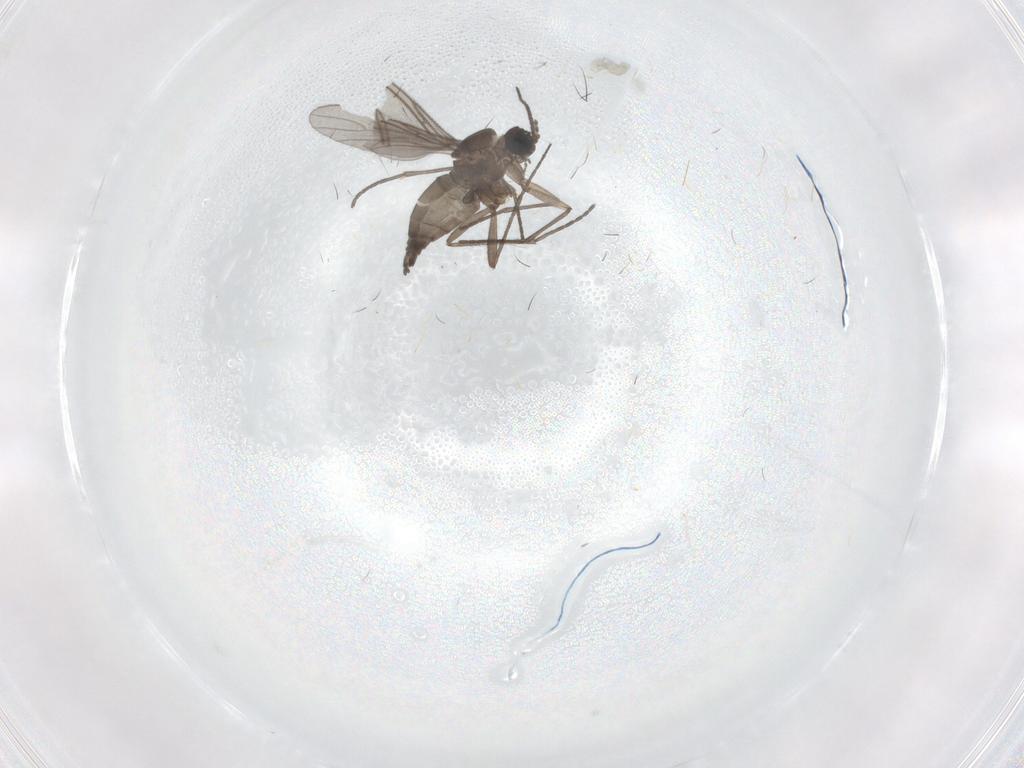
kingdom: Animalia
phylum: Arthropoda
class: Insecta
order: Diptera
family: Sciaridae
